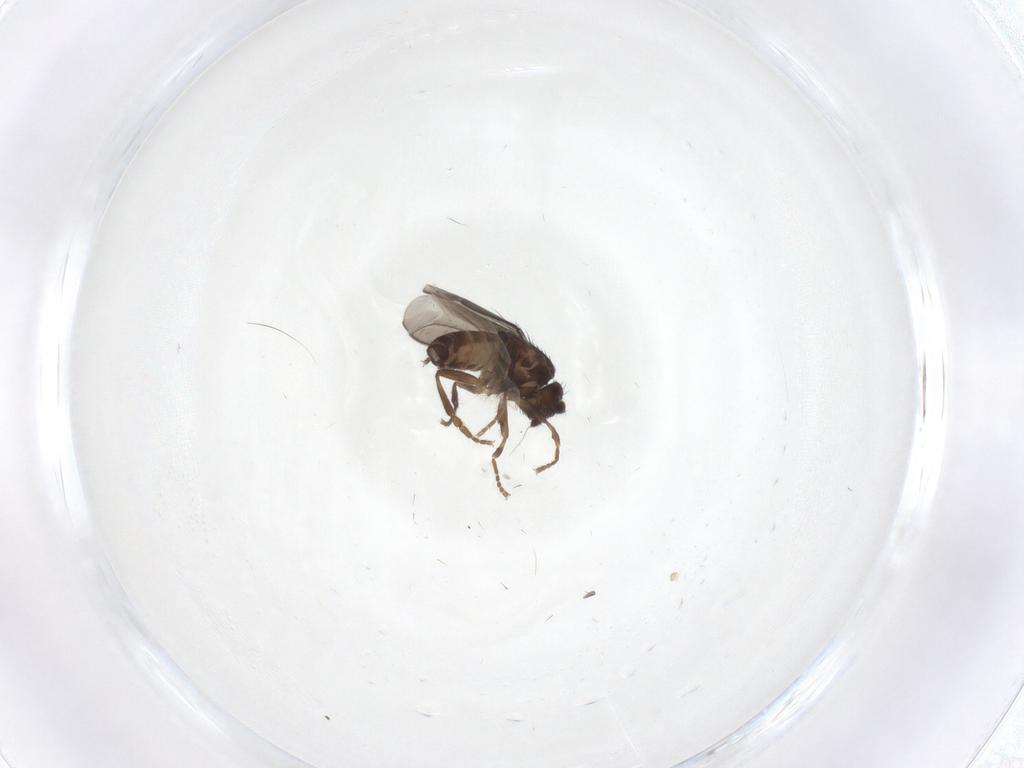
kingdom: Animalia
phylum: Arthropoda
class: Insecta
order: Diptera
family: Sphaeroceridae
